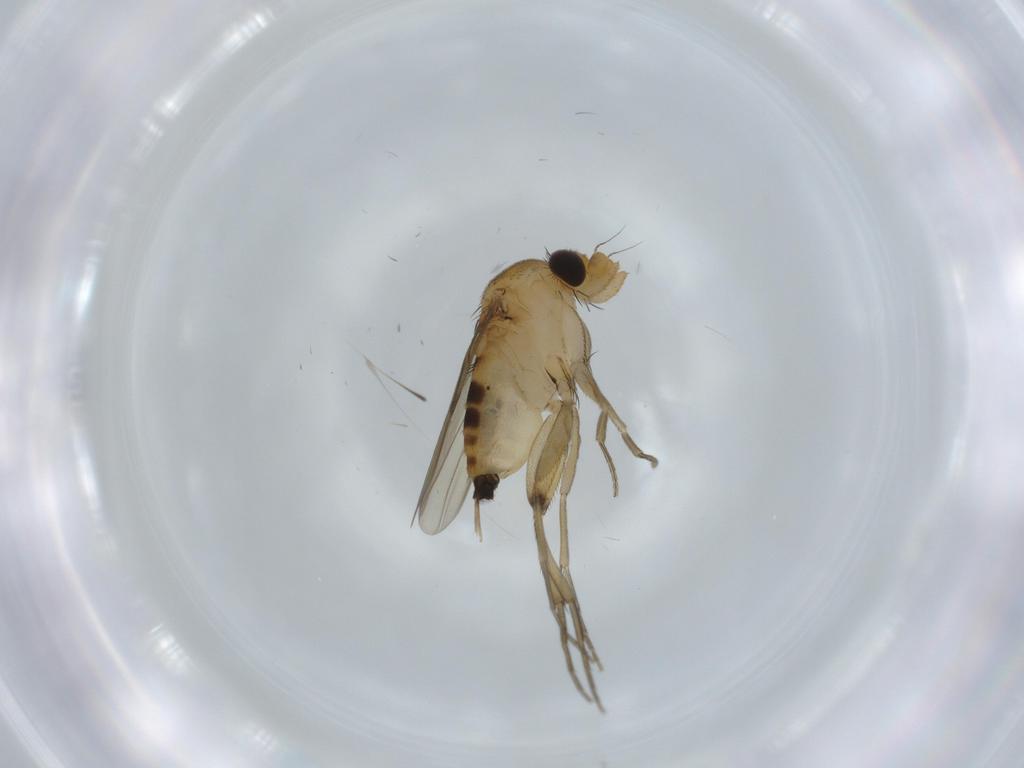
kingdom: Animalia
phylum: Arthropoda
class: Insecta
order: Diptera
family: Phoridae
